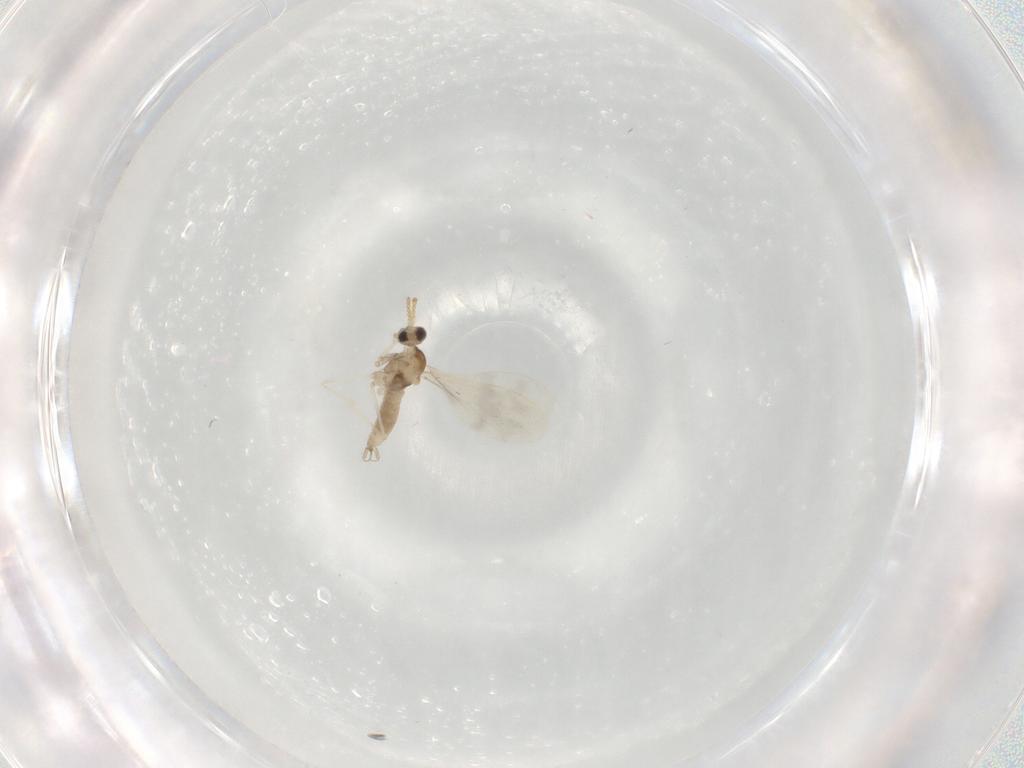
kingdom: Animalia
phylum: Arthropoda
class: Insecta
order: Diptera
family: Cecidomyiidae
